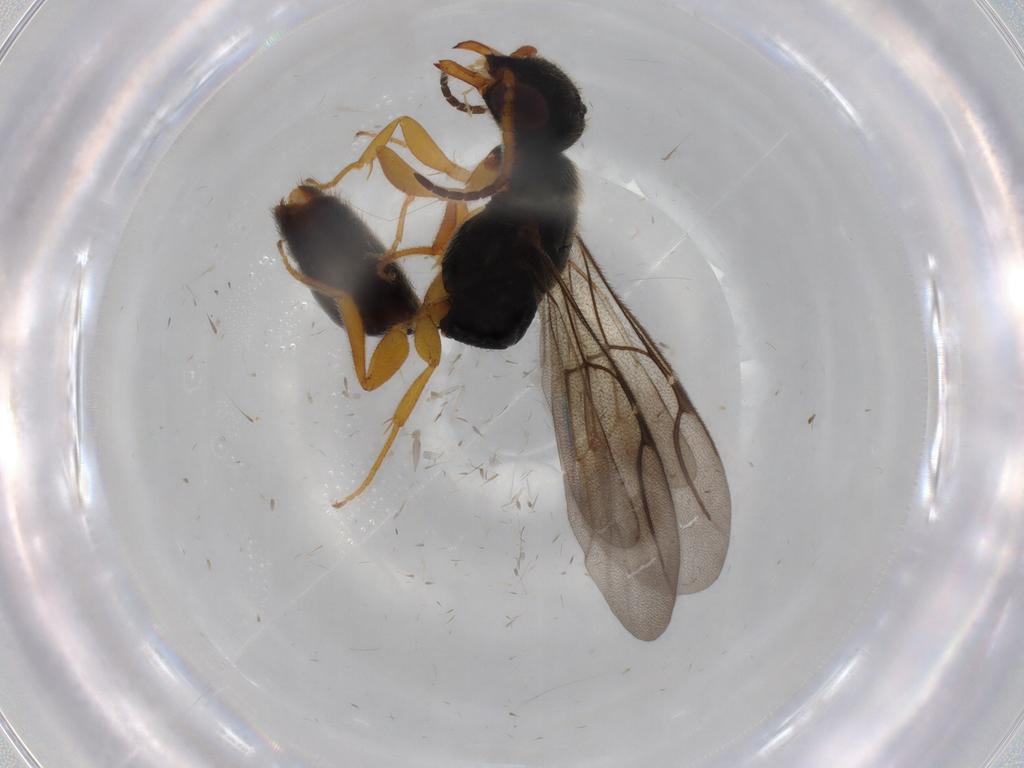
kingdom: Animalia
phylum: Arthropoda
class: Insecta
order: Hymenoptera
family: Bethylidae
